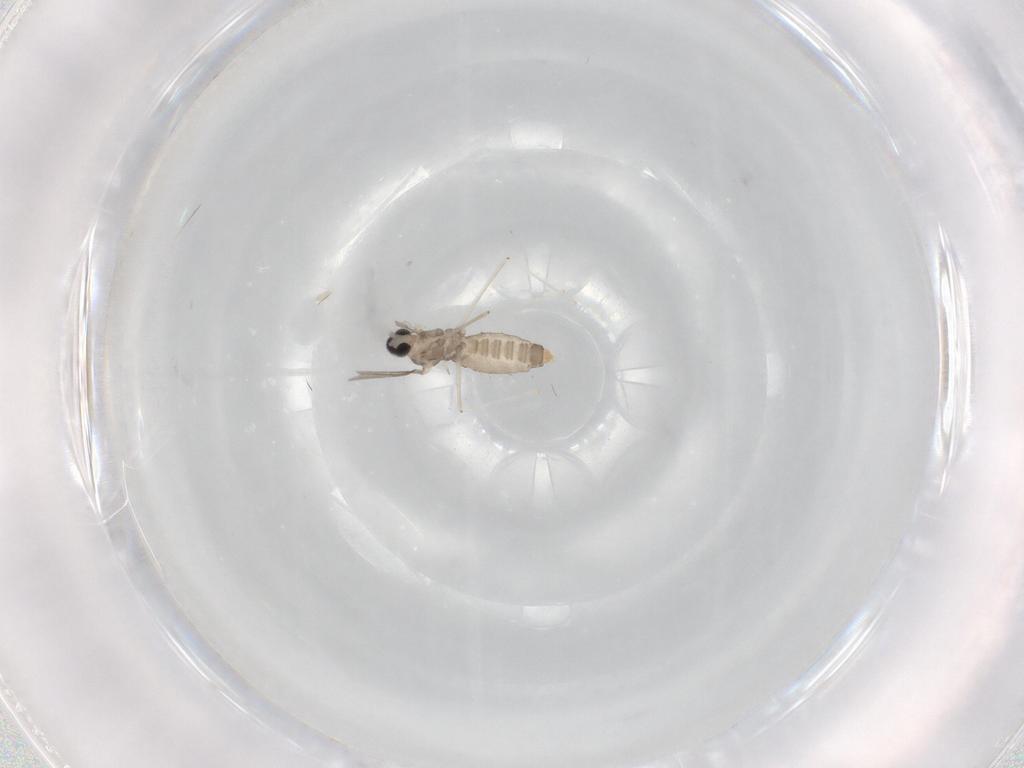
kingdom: Animalia
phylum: Arthropoda
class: Insecta
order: Diptera
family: Cecidomyiidae
